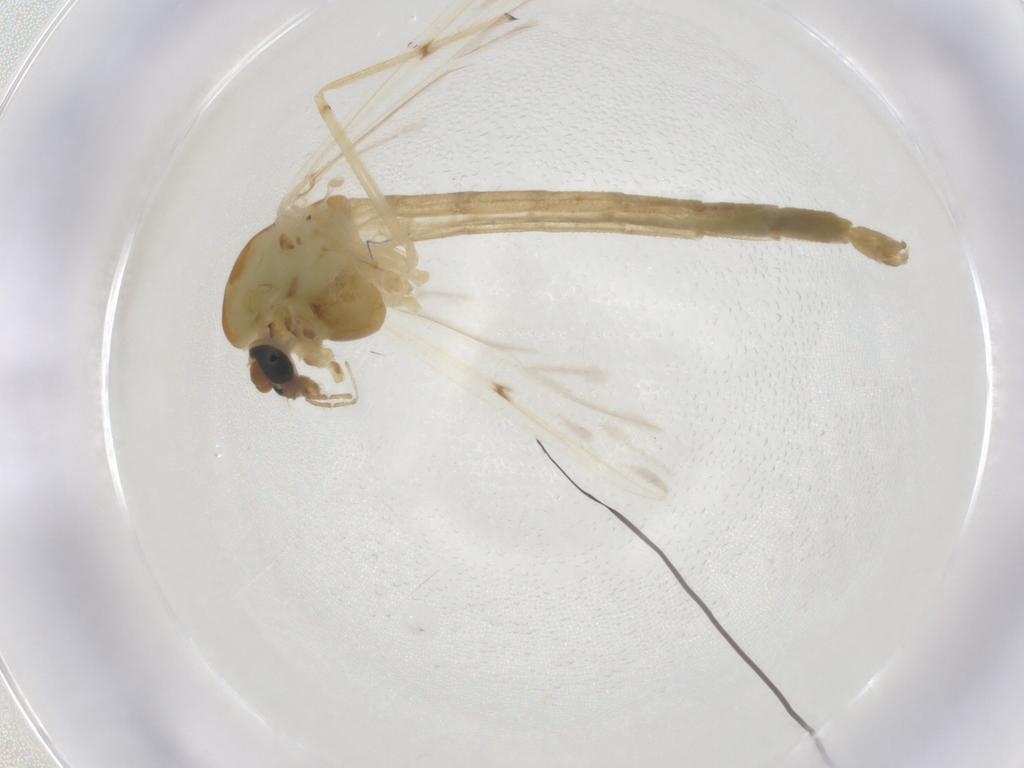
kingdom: Animalia
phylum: Arthropoda
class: Insecta
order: Diptera
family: Chironomidae
